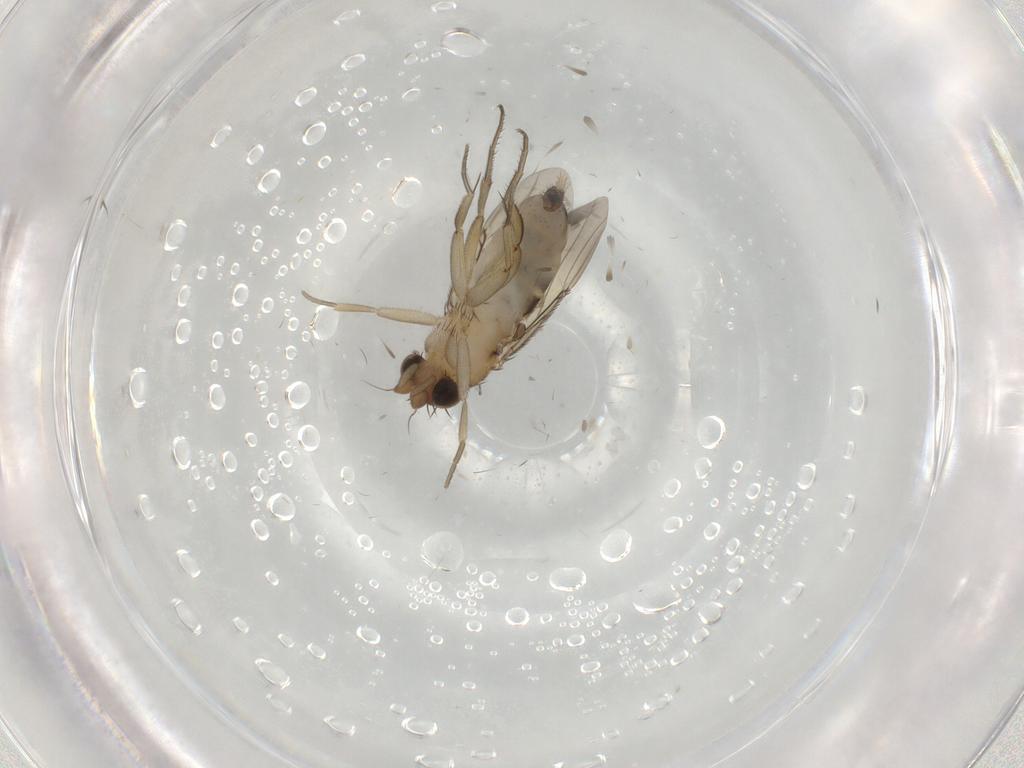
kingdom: Animalia
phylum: Arthropoda
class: Insecta
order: Diptera
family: Phoridae
